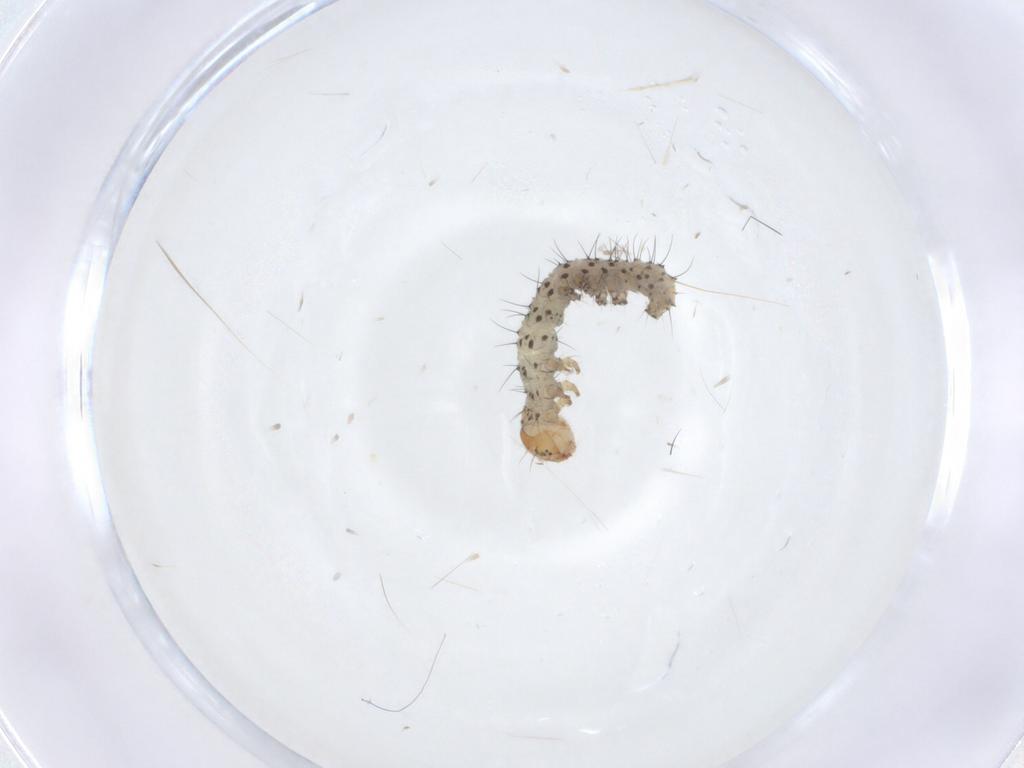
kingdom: Animalia
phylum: Arthropoda
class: Insecta
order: Lepidoptera
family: Noctuidae
